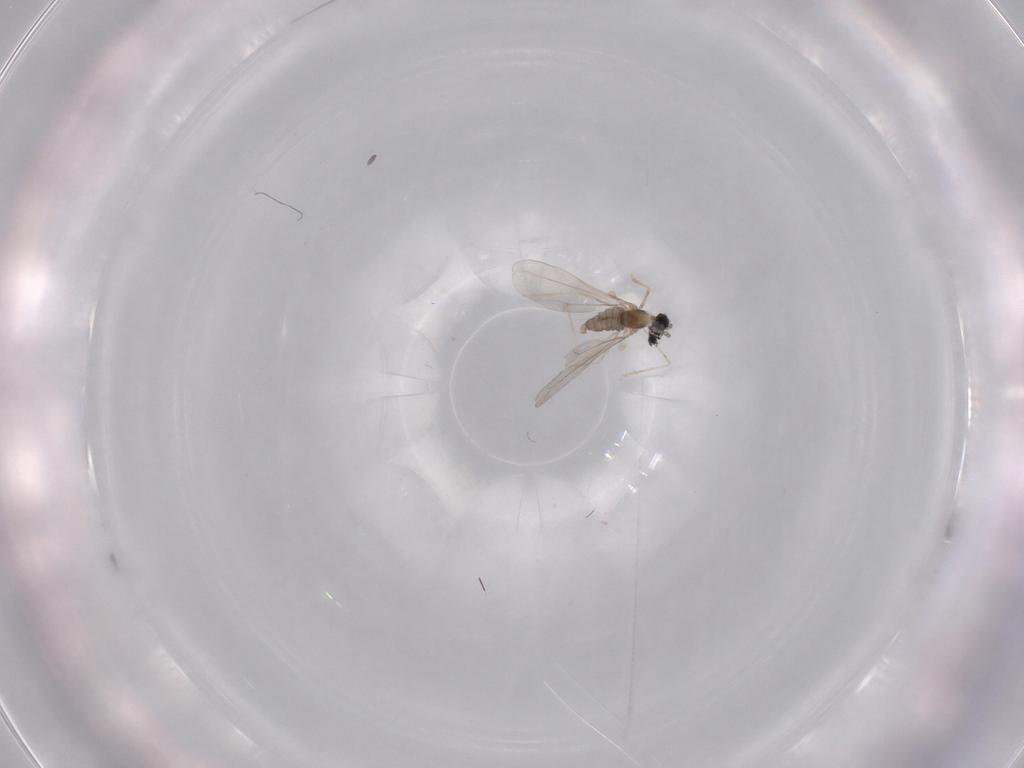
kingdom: Animalia
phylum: Arthropoda
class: Insecta
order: Diptera
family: Cecidomyiidae
